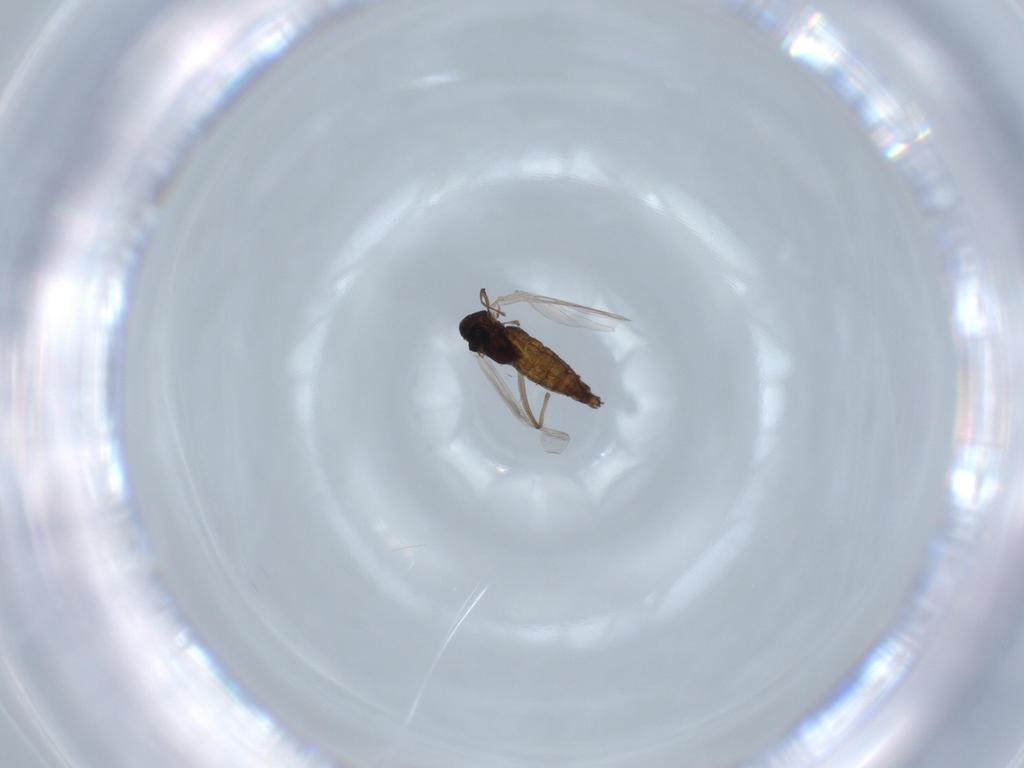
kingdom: Animalia
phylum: Arthropoda
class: Insecta
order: Diptera
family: Chironomidae
